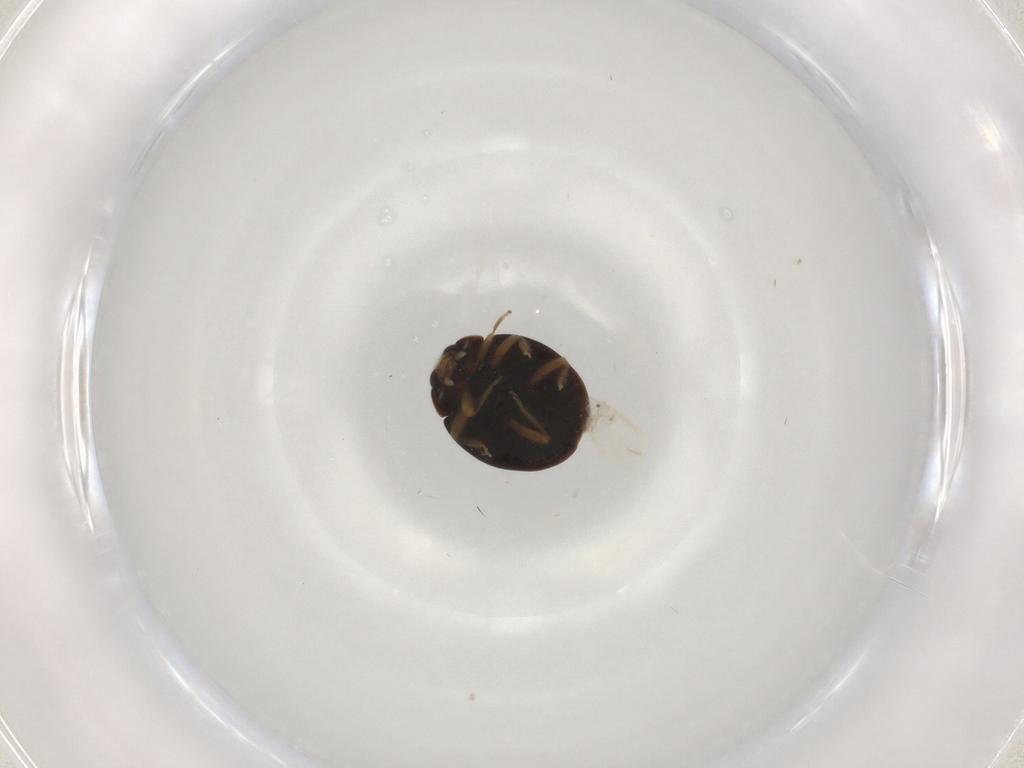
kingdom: Animalia
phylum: Arthropoda
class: Insecta
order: Coleoptera
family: Coccinellidae
